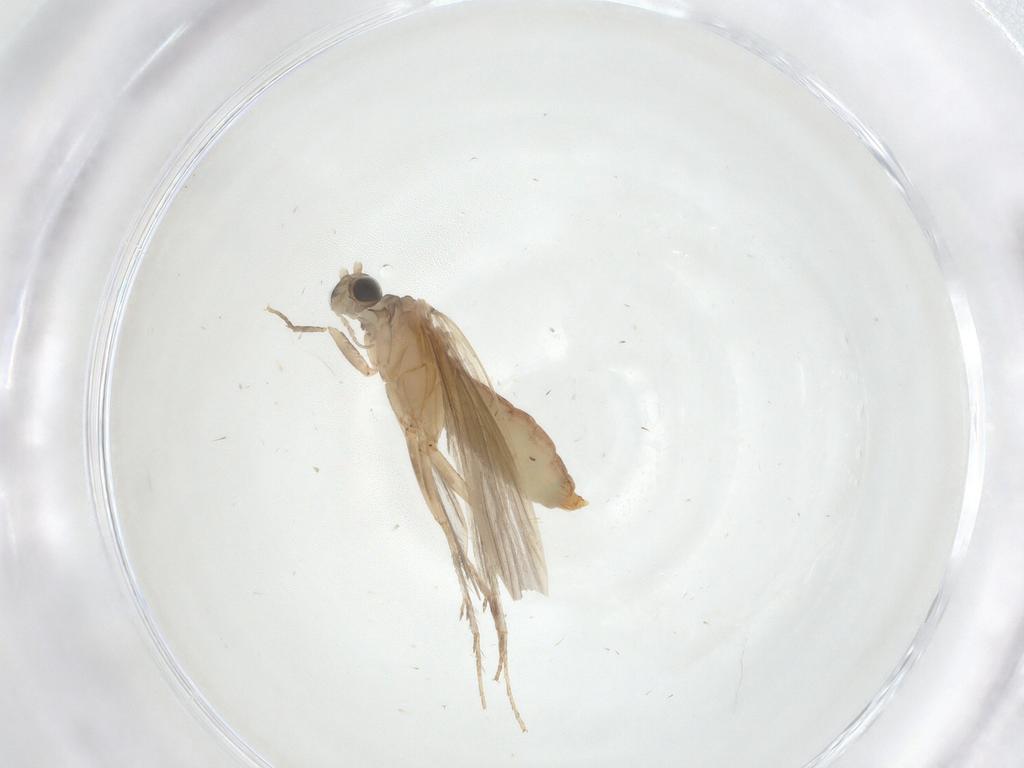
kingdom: Animalia
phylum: Arthropoda
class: Insecta
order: Trichoptera
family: Psychomyiidae
